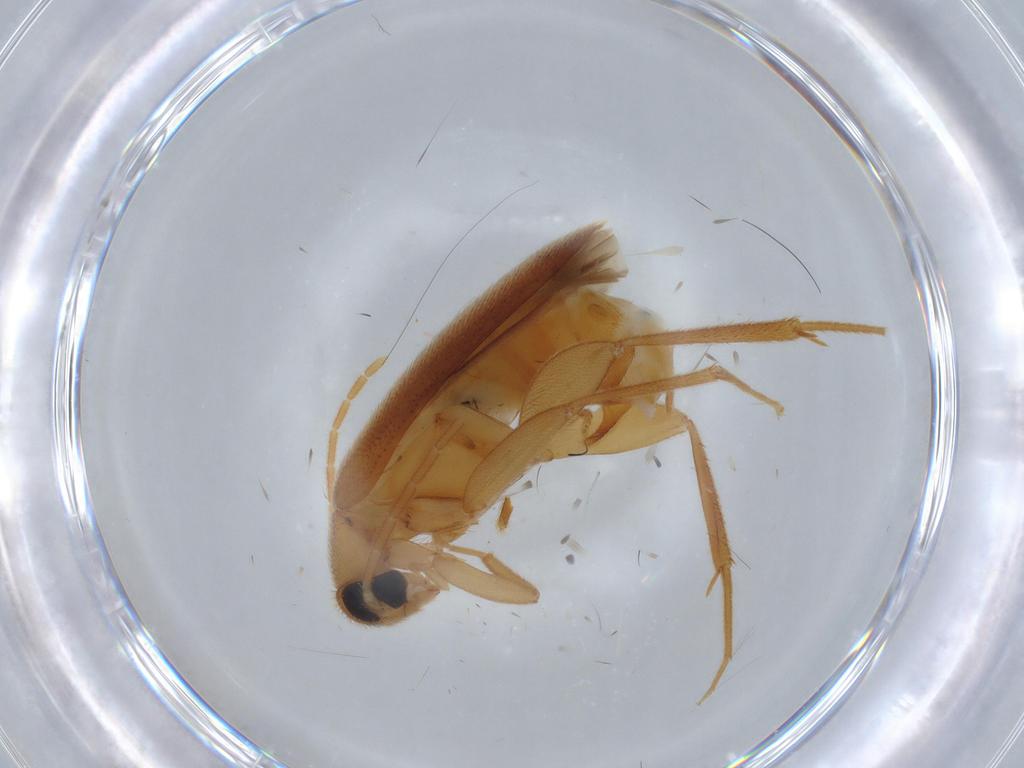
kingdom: Animalia
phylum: Arthropoda
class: Insecta
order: Coleoptera
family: Scraptiidae
